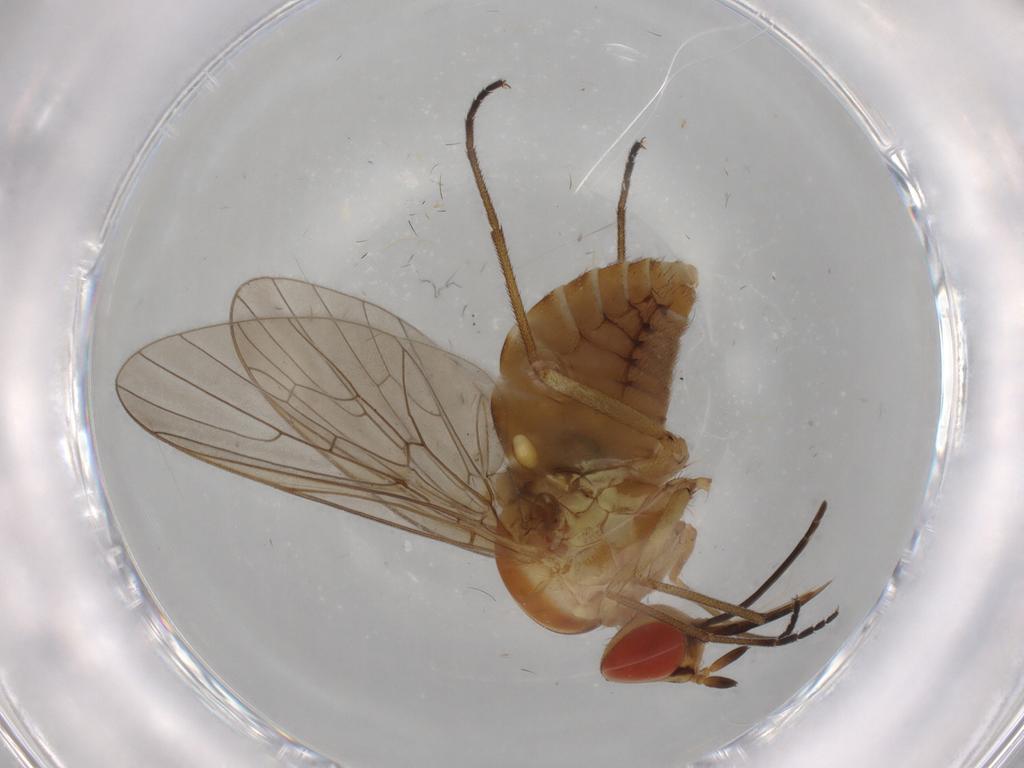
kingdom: Animalia
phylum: Arthropoda
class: Insecta
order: Diptera
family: Bombyliidae
